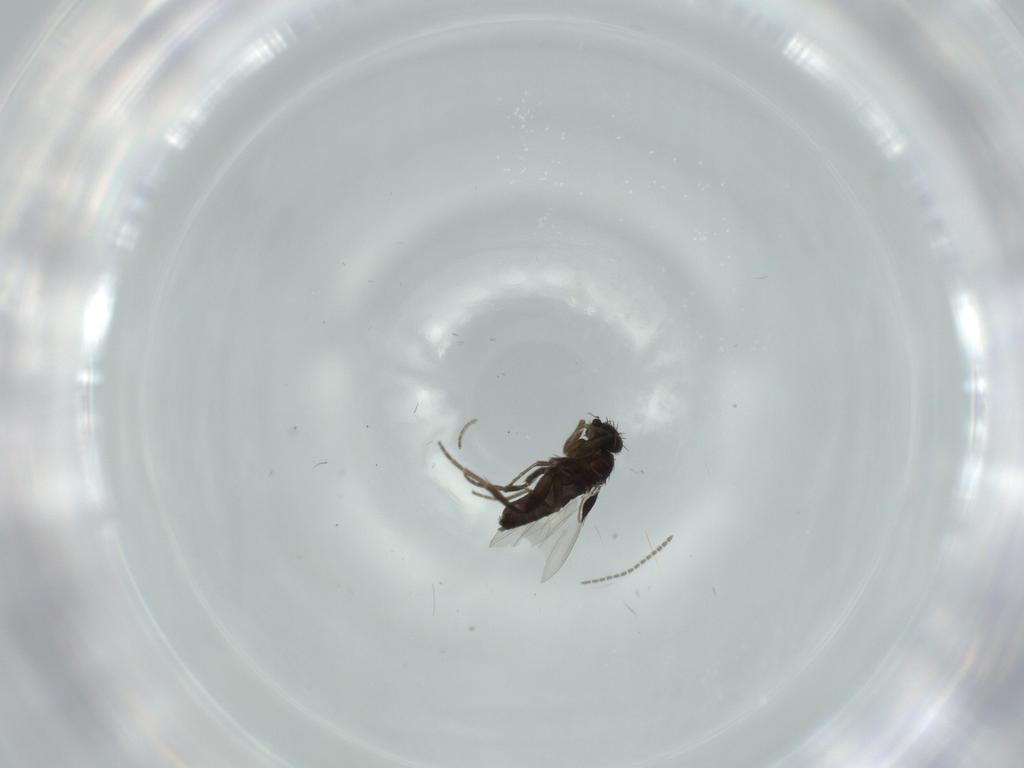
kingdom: Animalia
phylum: Arthropoda
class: Insecta
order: Diptera
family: Phoridae
